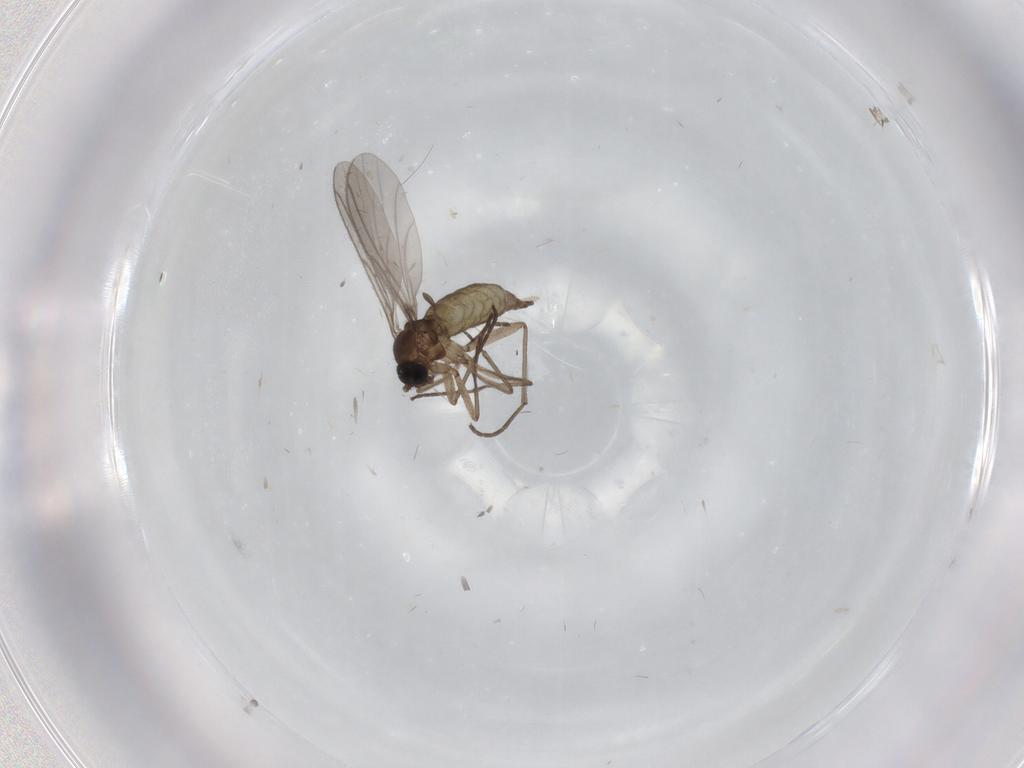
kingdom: Animalia
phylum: Arthropoda
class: Insecta
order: Diptera
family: Sciaridae
